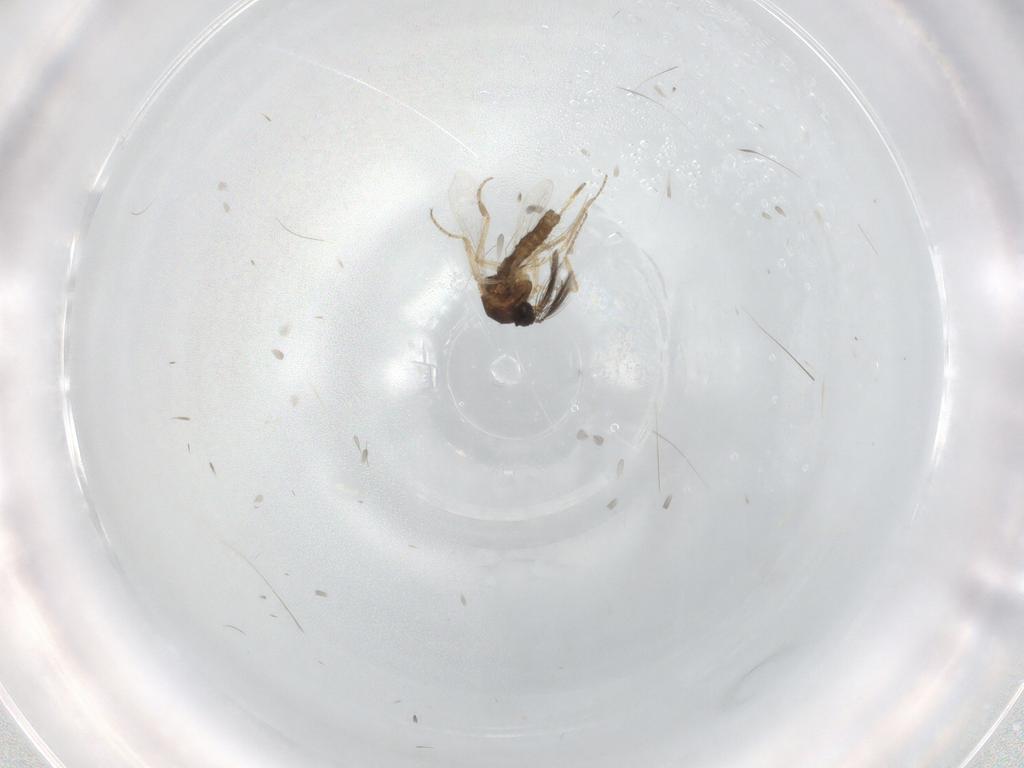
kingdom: Animalia
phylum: Arthropoda
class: Insecta
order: Diptera
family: Ceratopogonidae
